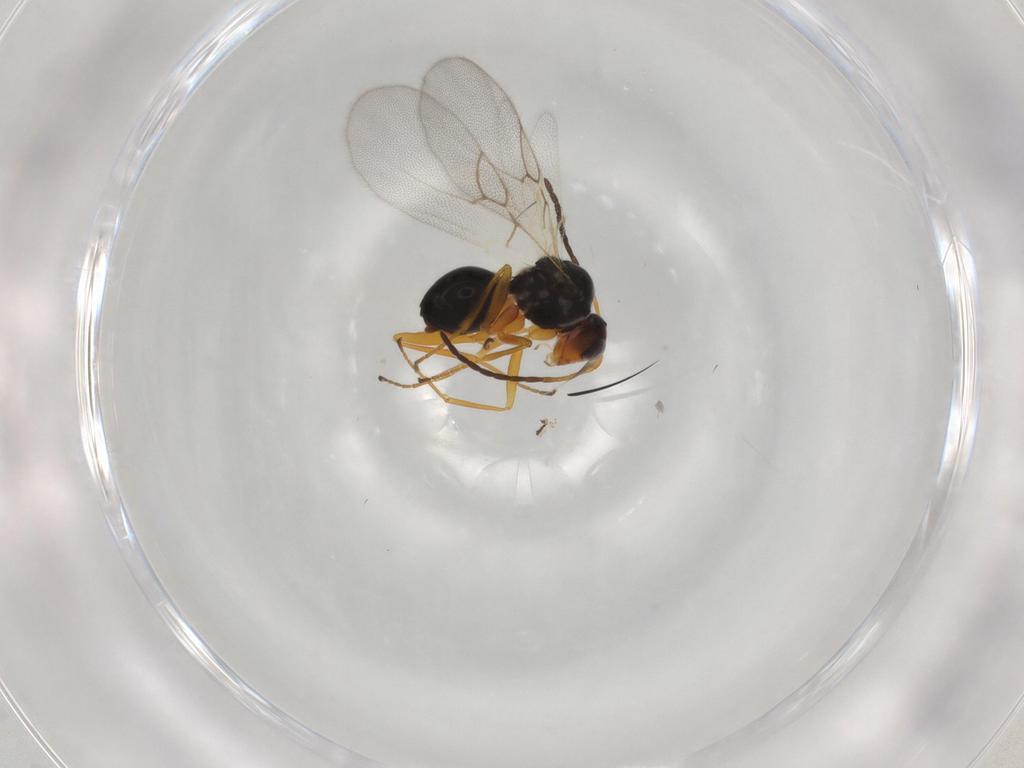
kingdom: Animalia
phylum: Arthropoda
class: Insecta
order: Hymenoptera
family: Figitidae
